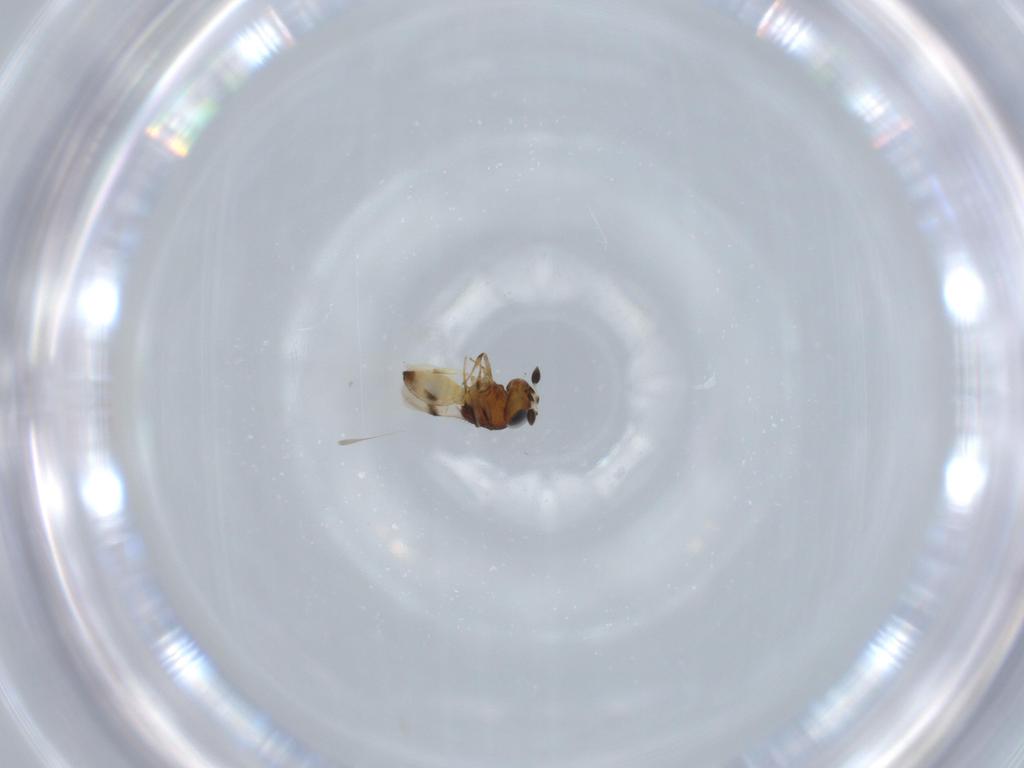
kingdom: Animalia
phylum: Arthropoda
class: Arachnida
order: Araneae
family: Pholcidae
